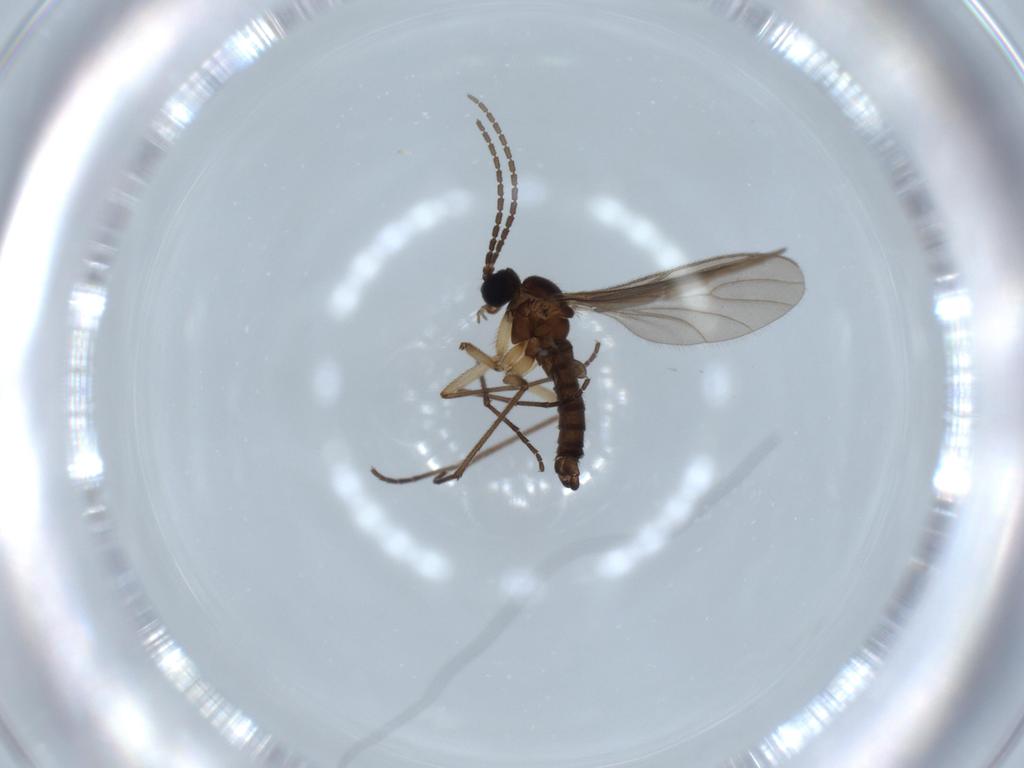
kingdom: Animalia
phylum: Arthropoda
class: Insecta
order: Diptera
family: Sciaridae
